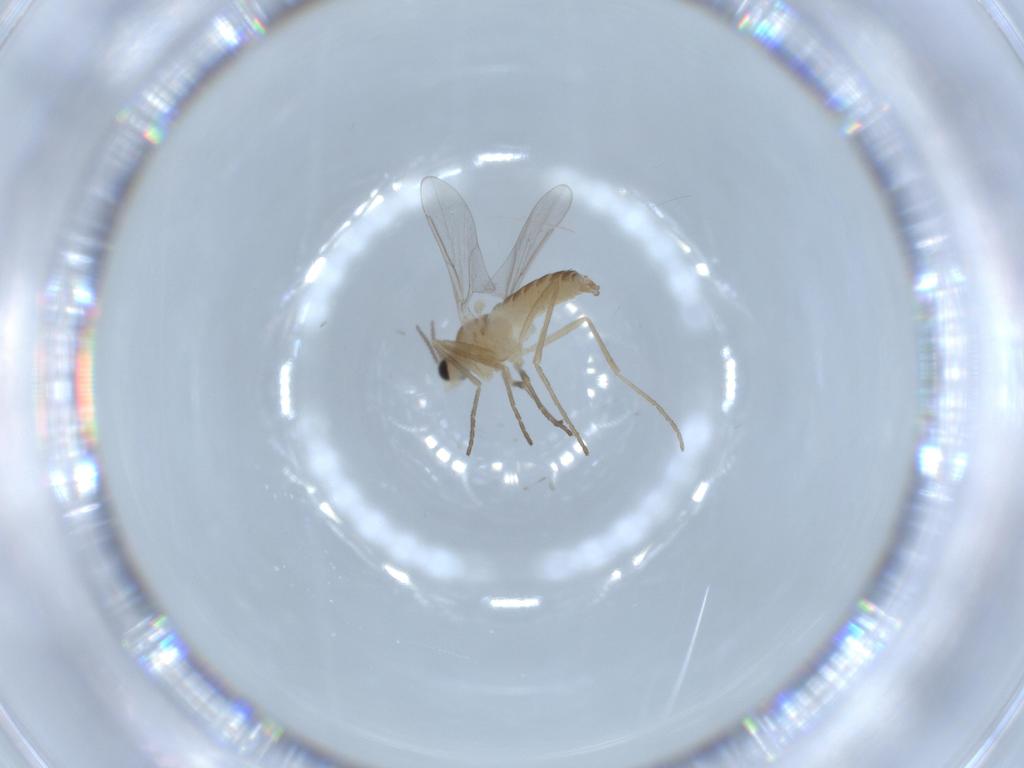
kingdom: Animalia
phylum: Arthropoda
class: Insecta
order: Diptera
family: Cecidomyiidae
